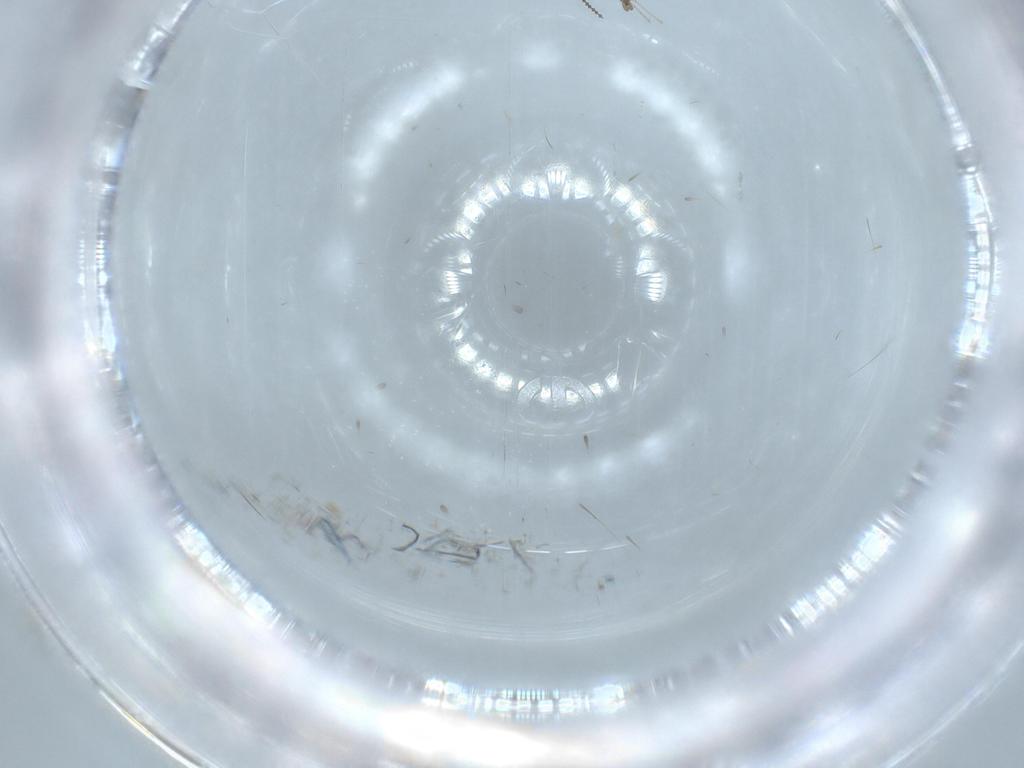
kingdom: Animalia
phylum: Arthropoda
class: Insecta
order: Diptera
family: Cecidomyiidae
